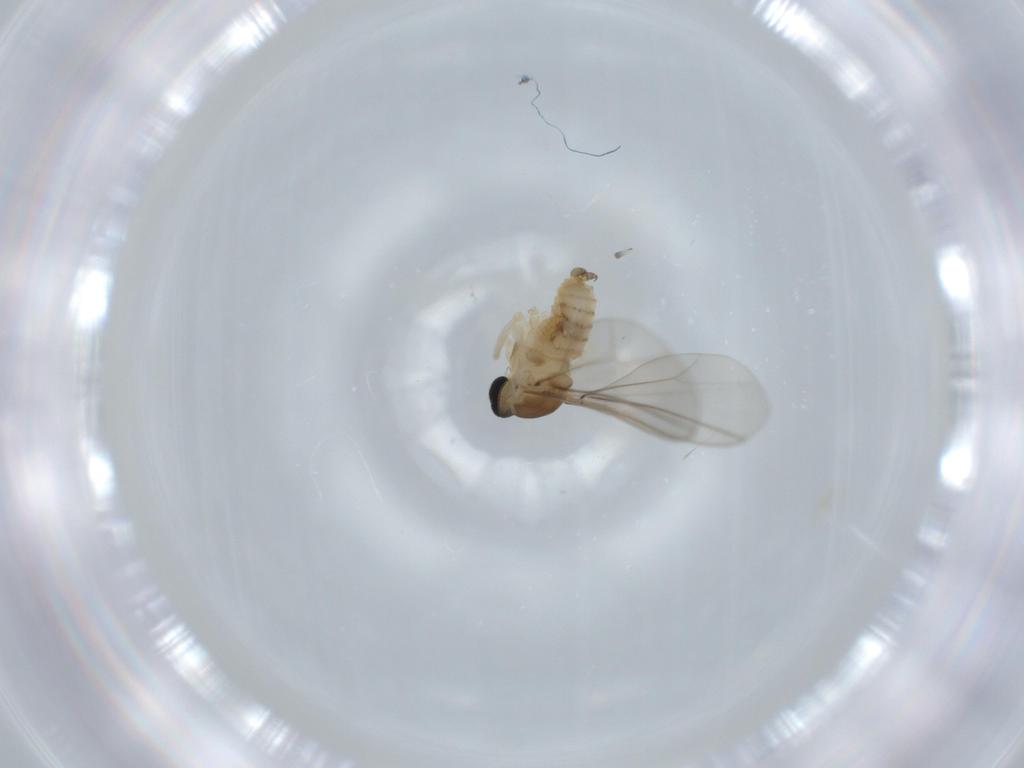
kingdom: Animalia
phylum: Arthropoda
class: Insecta
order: Diptera
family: Cecidomyiidae
